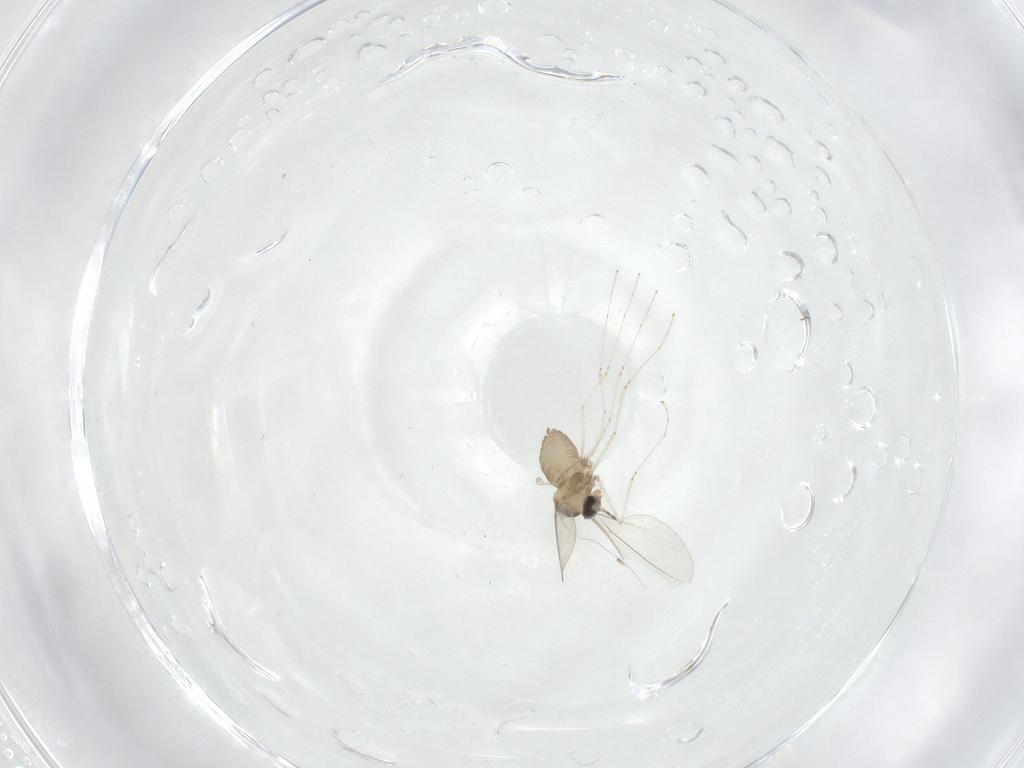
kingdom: Animalia
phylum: Arthropoda
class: Insecta
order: Diptera
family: Cecidomyiidae
